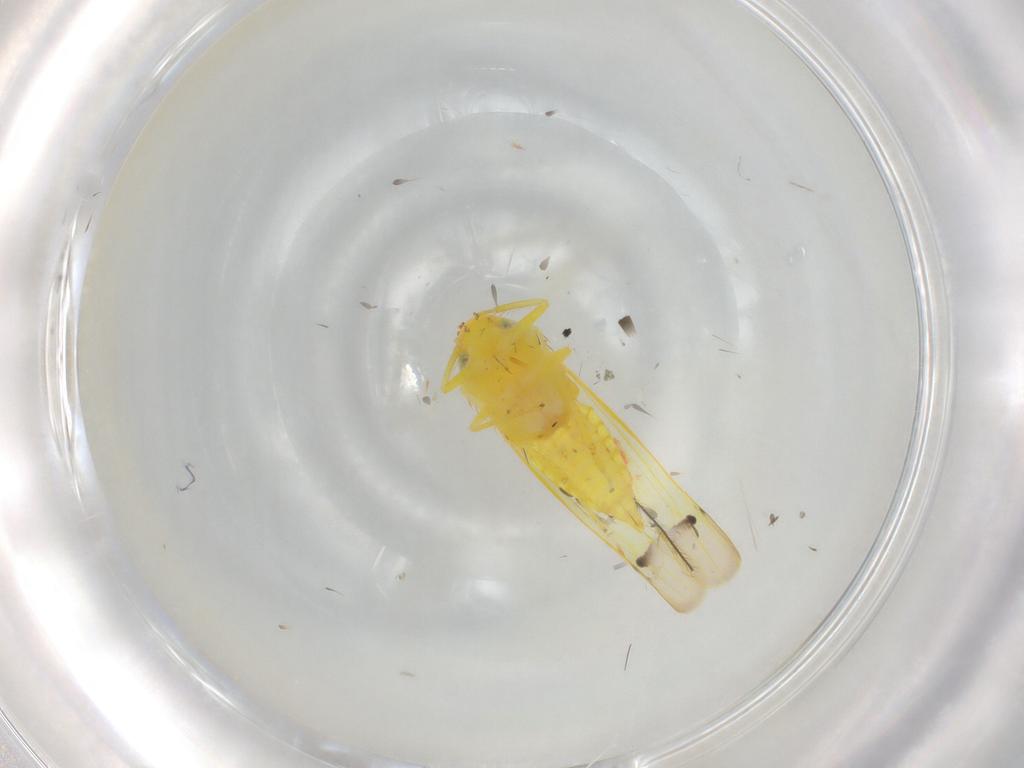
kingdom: Animalia
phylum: Arthropoda
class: Insecta
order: Hemiptera
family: Cicadellidae
